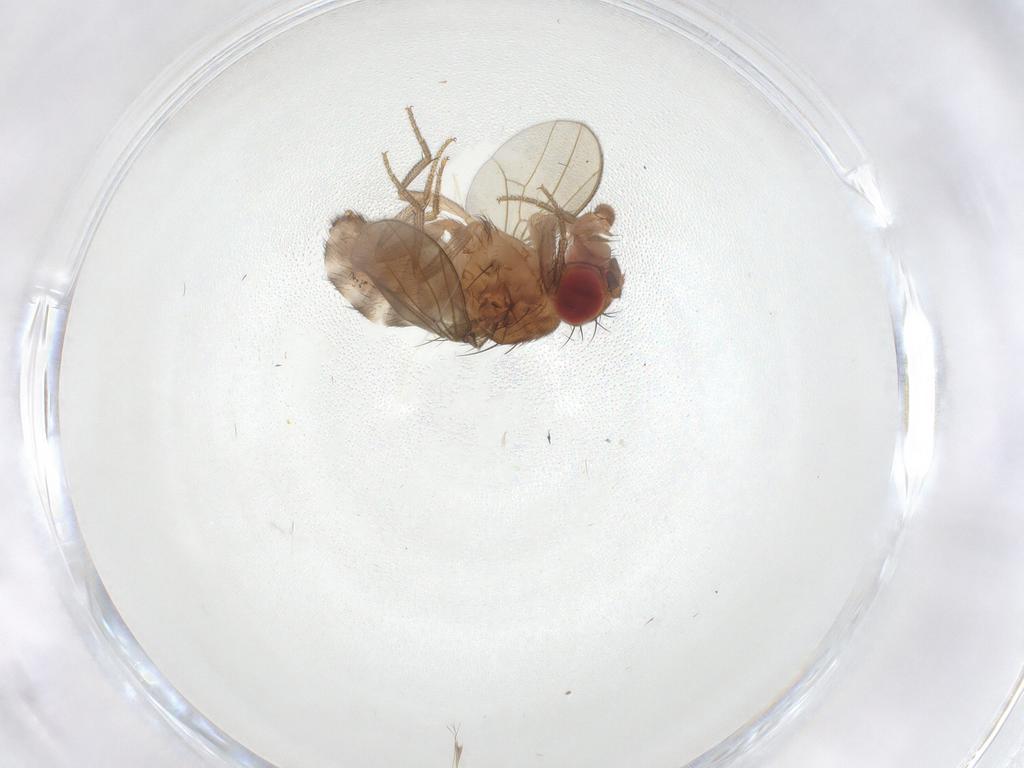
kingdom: Animalia
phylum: Arthropoda
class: Insecta
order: Diptera
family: Drosophilidae
